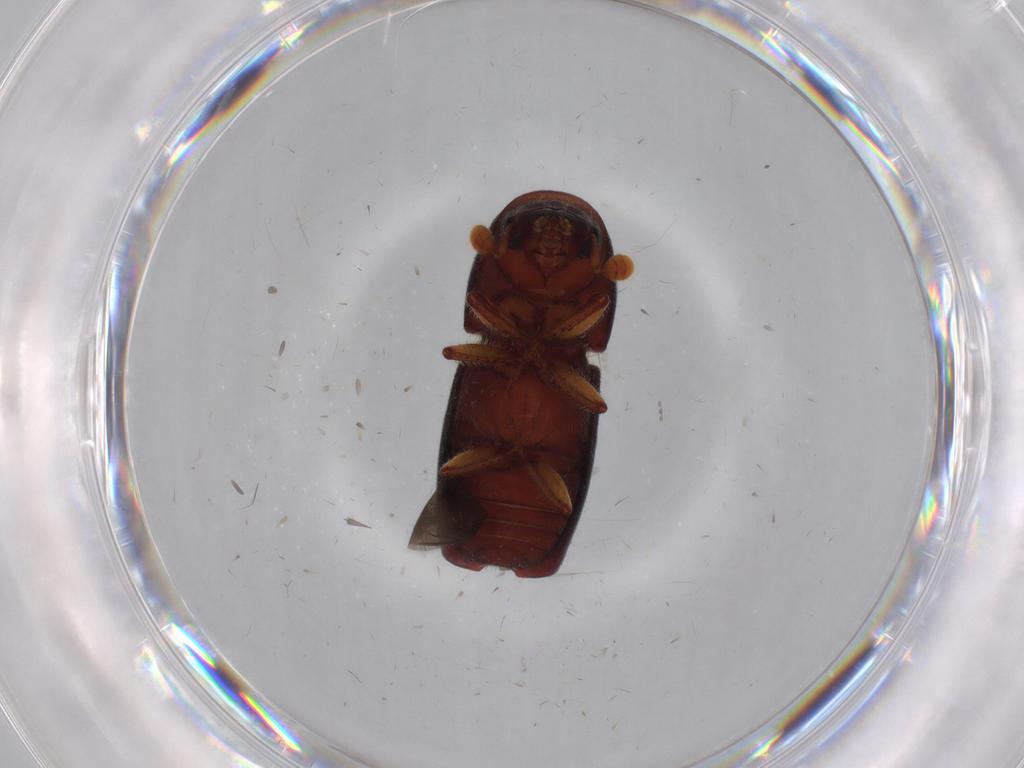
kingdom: Animalia
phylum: Arthropoda
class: Insecta
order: Coleoptera
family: Curculionidae
